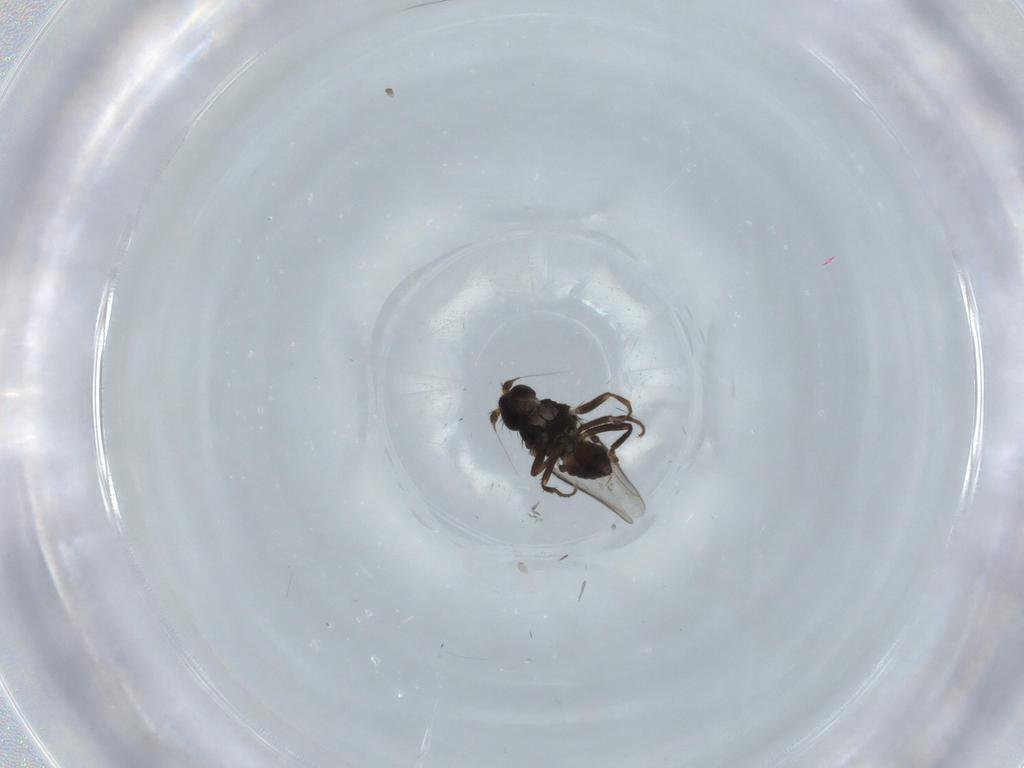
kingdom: Animalia
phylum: Arthropoda
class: Insecta
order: Diptera
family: Sphaeroceridae
